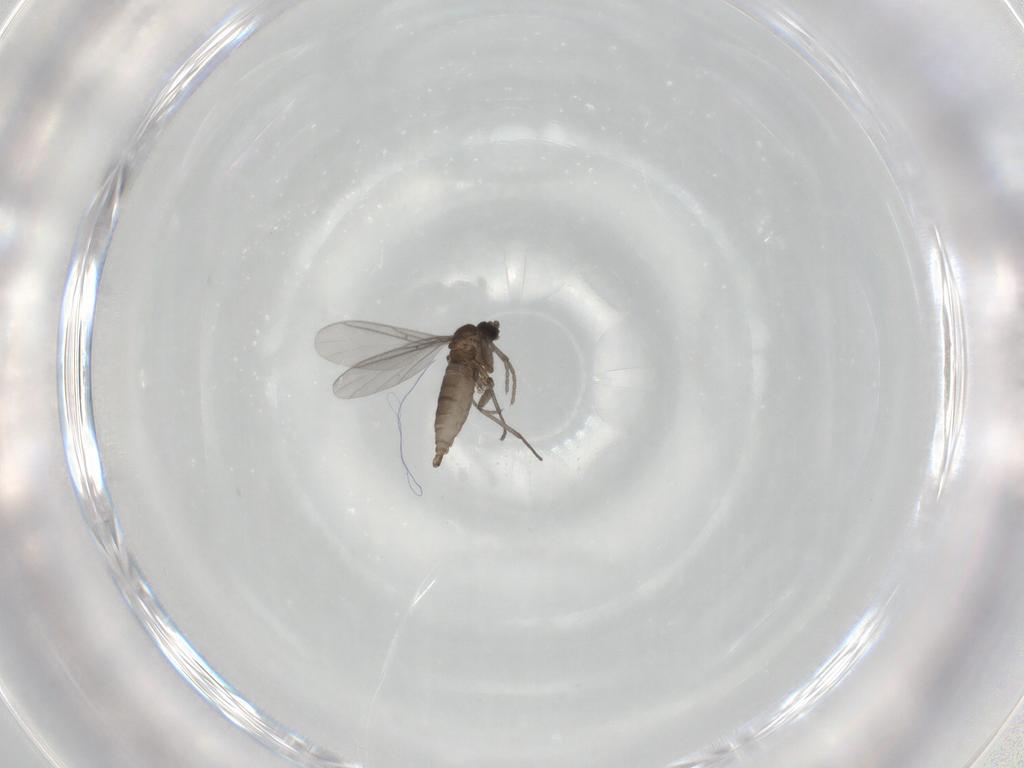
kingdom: Animalia
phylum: Arthropoda
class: Insecta
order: Diptera
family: Sciaridae
